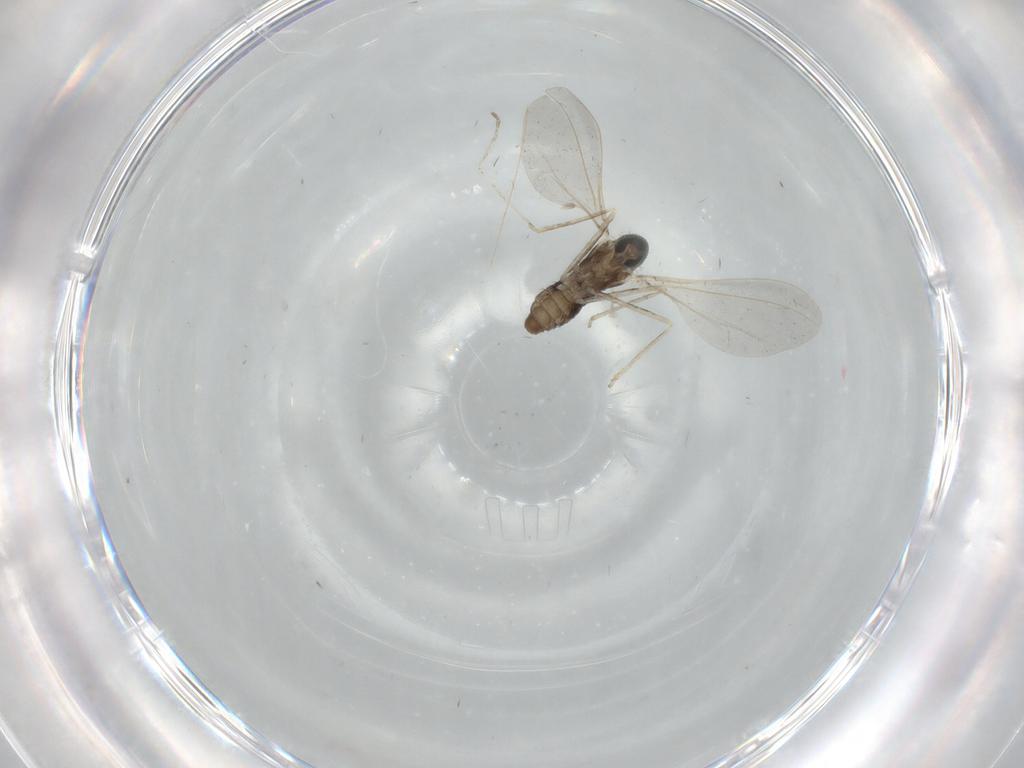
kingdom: Animalia
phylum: Arthropoda
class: Insecta
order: Diptera
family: Cecidomyiidae
